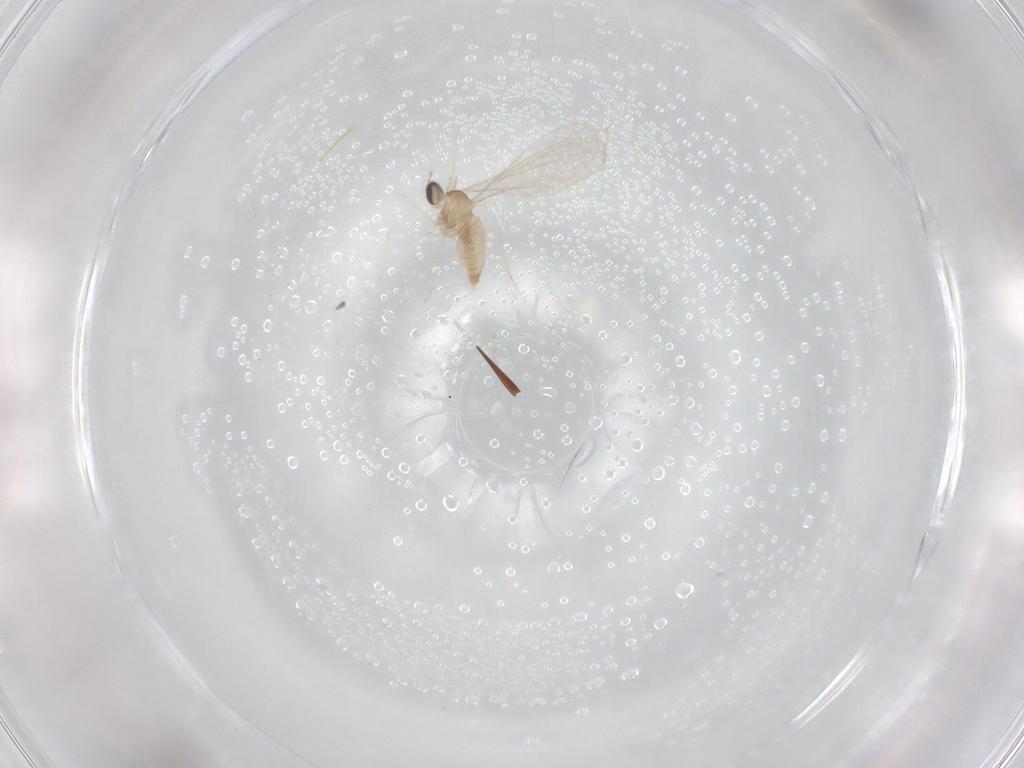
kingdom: Animalia
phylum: Arthropoda
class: Insecta
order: Diptera
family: Cecidomyiidae
